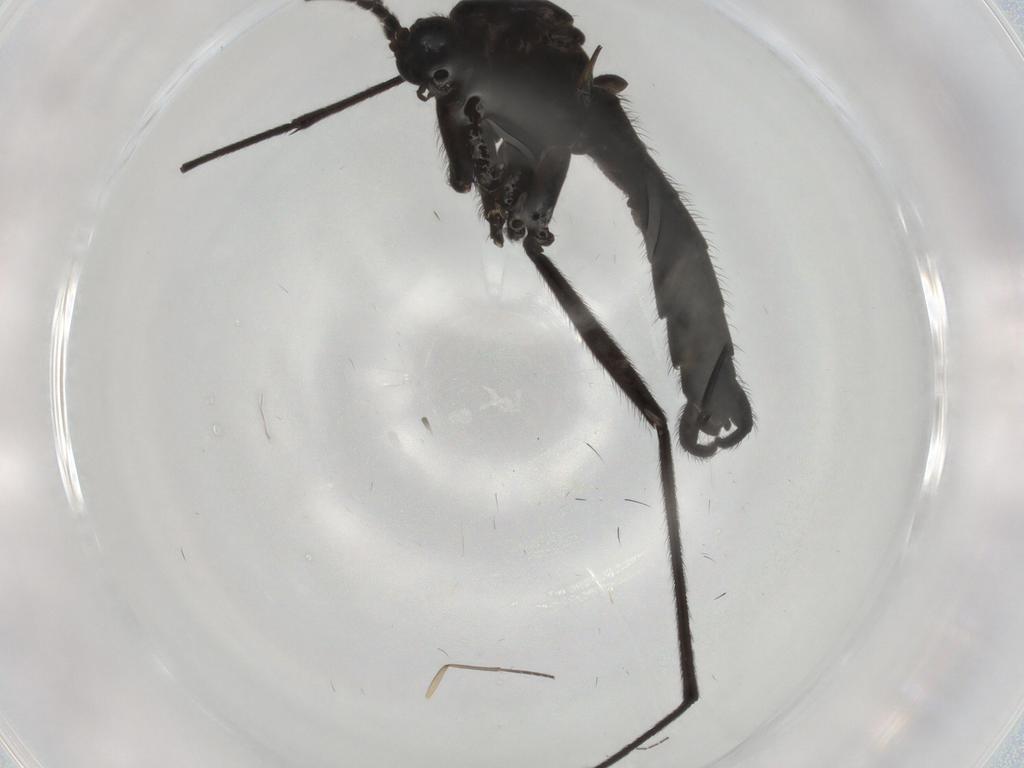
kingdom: Animalia
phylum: Arthropoda
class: Insecta
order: Diptera
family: Sciaridae
